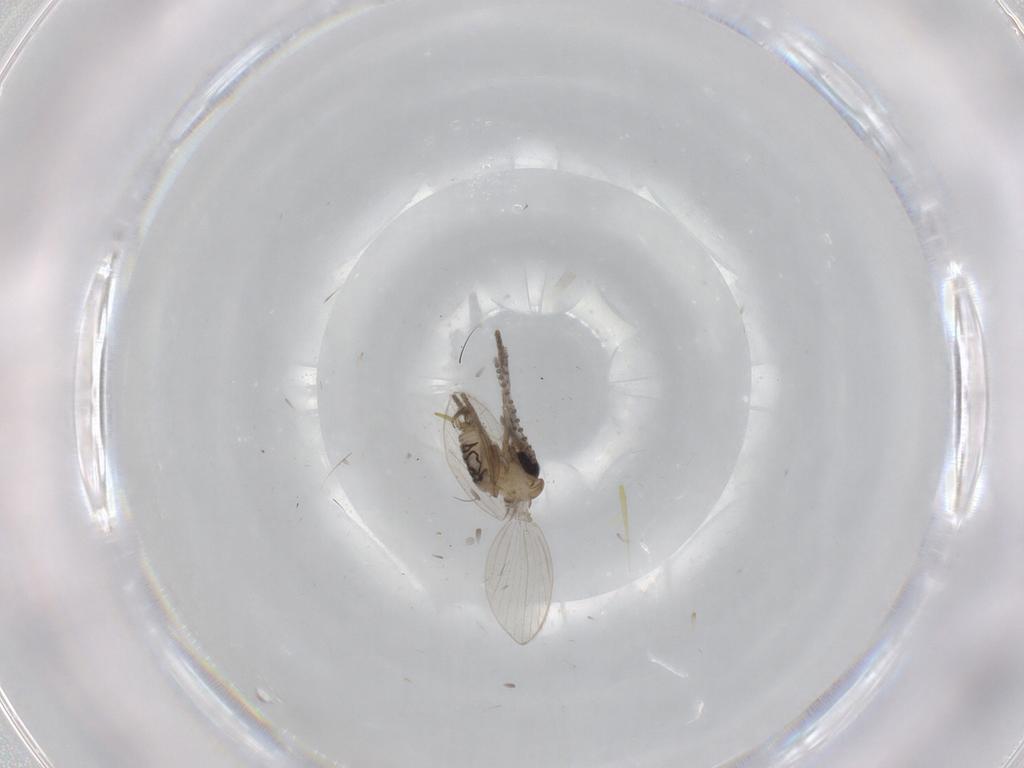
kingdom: Animalia
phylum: Arthropoda
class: Insecta
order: Diptera
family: Psychodidae
